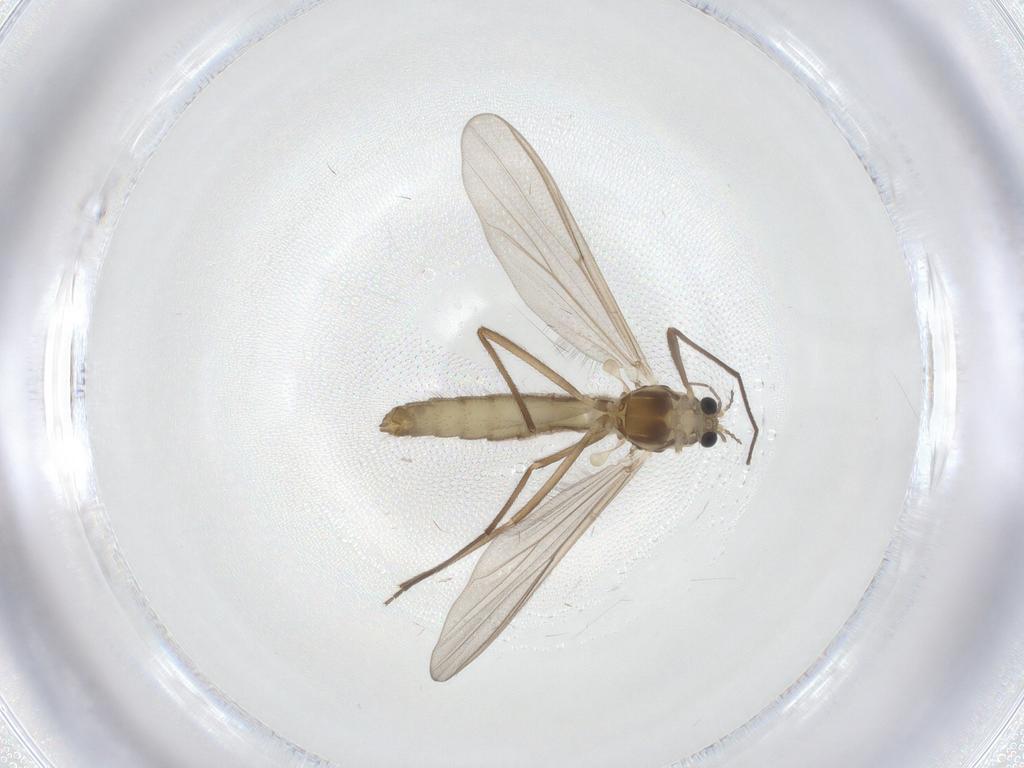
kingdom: Animalia
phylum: Arthropoda
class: Insecta
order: Diptera
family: Chironomidae
